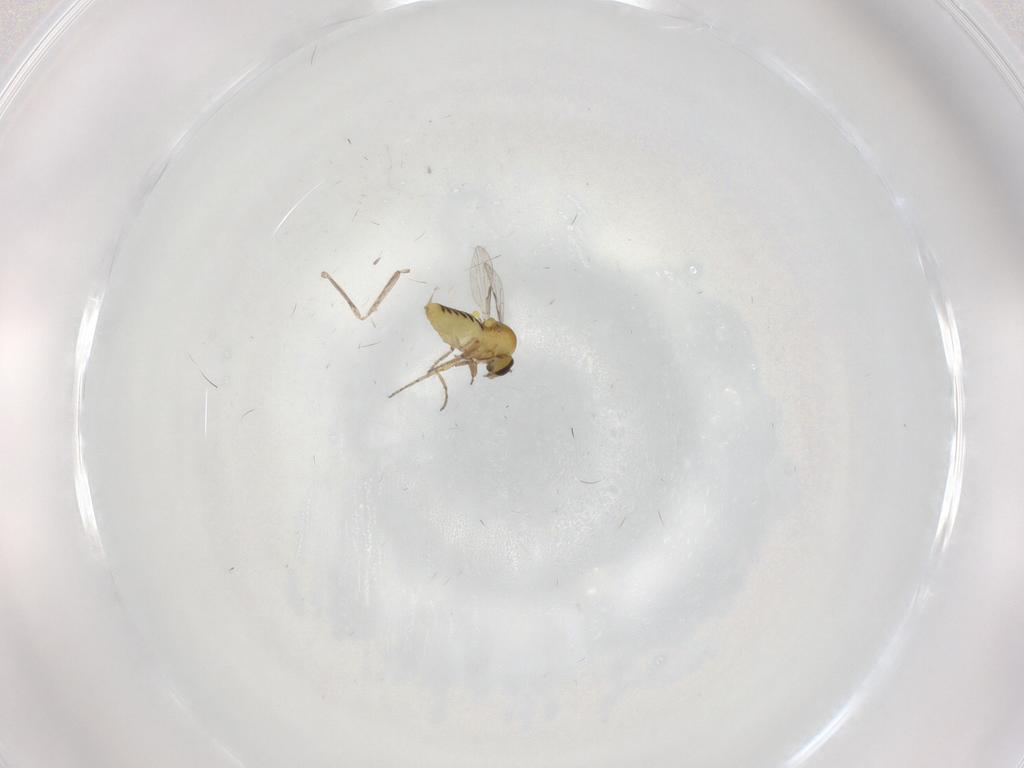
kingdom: Animalia
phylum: Arthropoda
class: Insecta
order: Diptera
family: Ceratopogonidae
